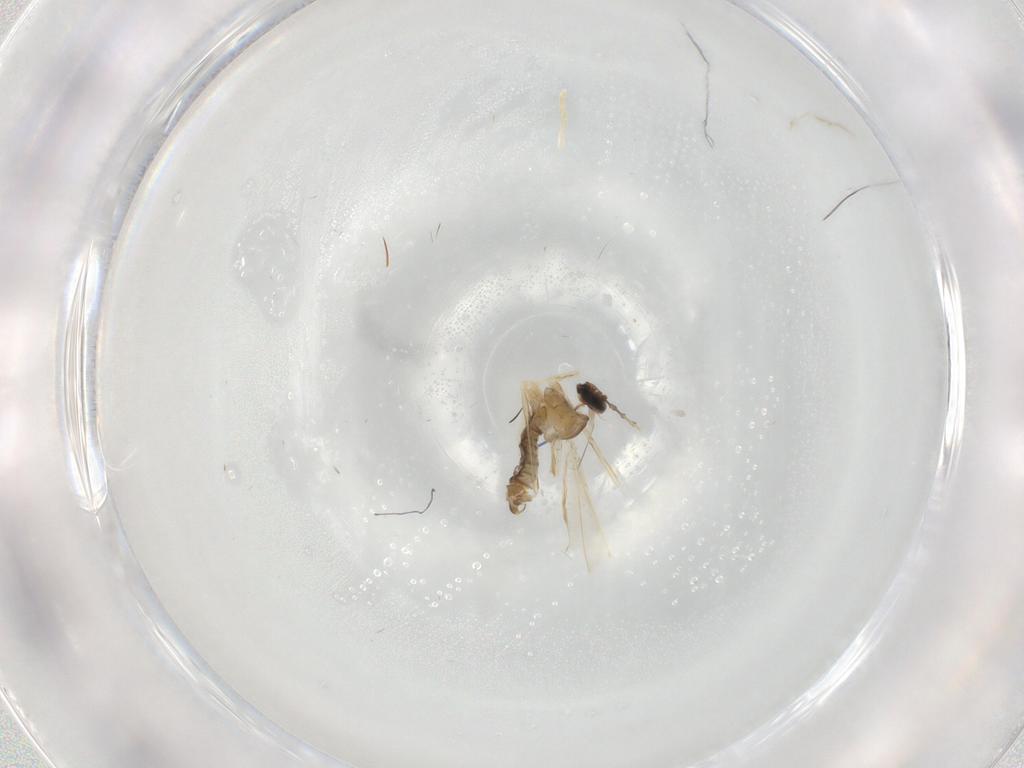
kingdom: Animalia
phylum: Arthropoda
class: Insecta
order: Diptera
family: Cecidomyiidae
